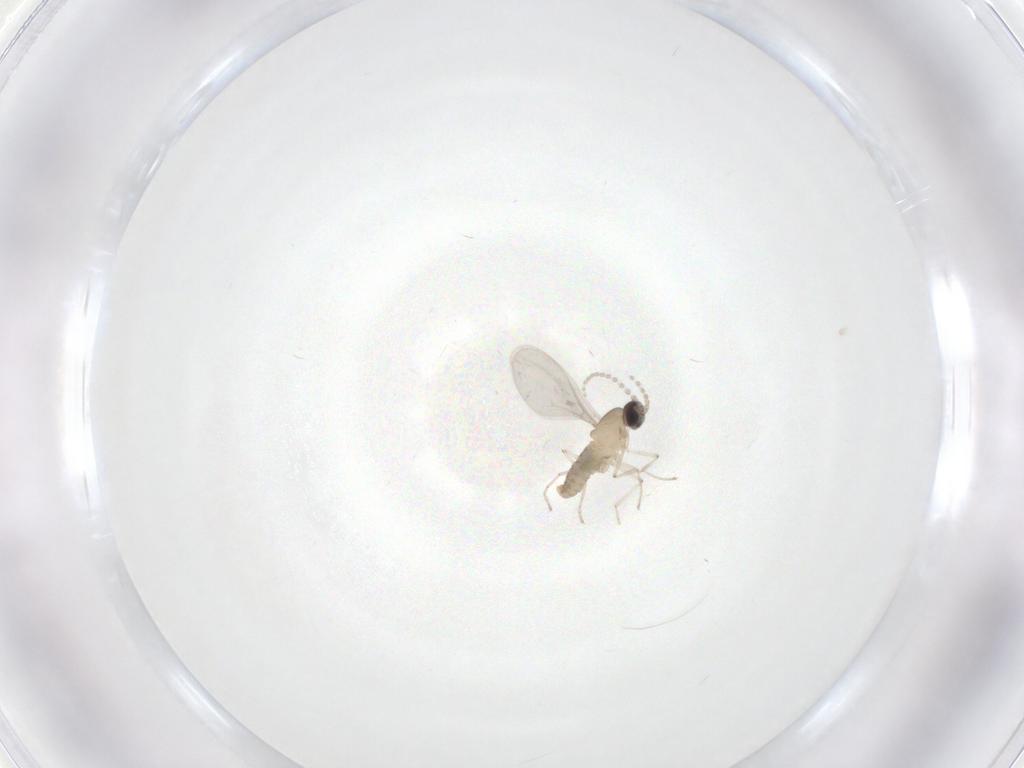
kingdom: Animalia
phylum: Arthropoda
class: Insecta
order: Diptera
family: Cecidomyiidae
